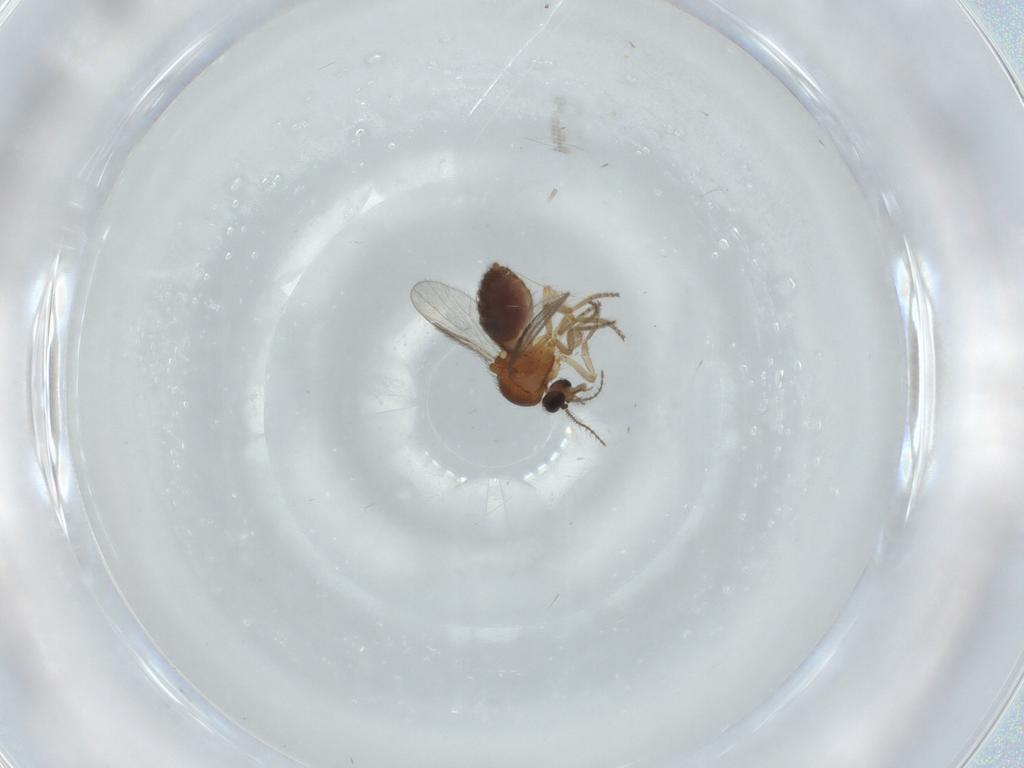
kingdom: Animalia
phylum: Arthropoda
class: Insecta
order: Diptera
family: Ceratopogonidae
